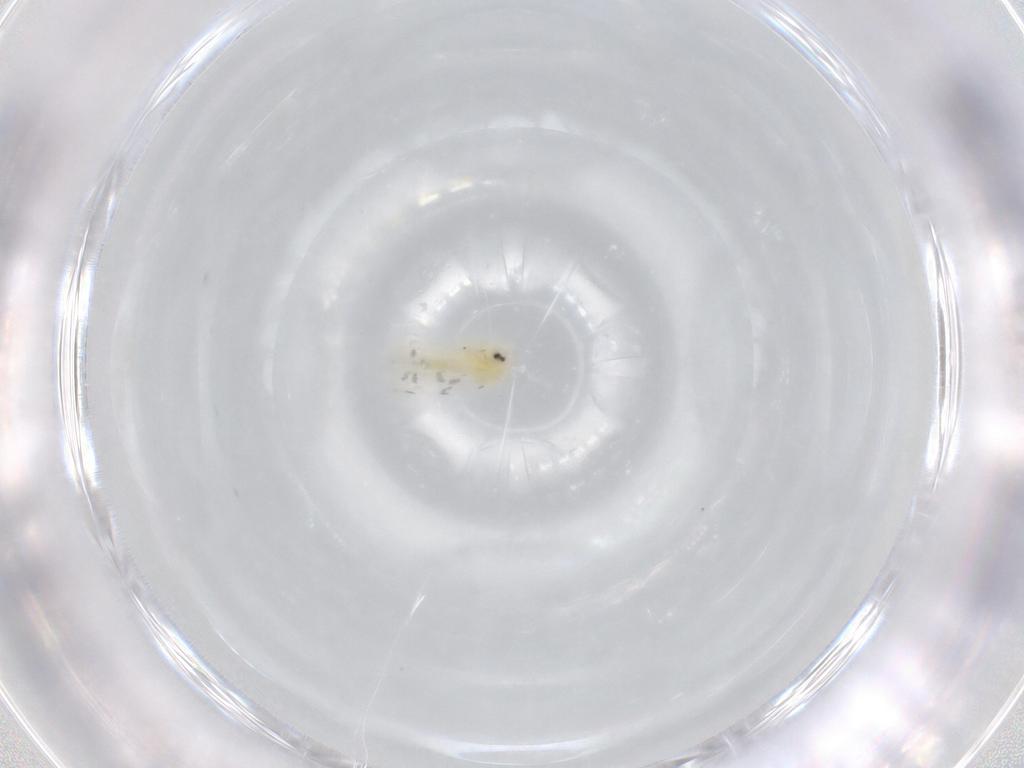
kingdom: Animalia
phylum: Arthropoda
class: Insecta
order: Hemiptera
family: Aleyrodidae
